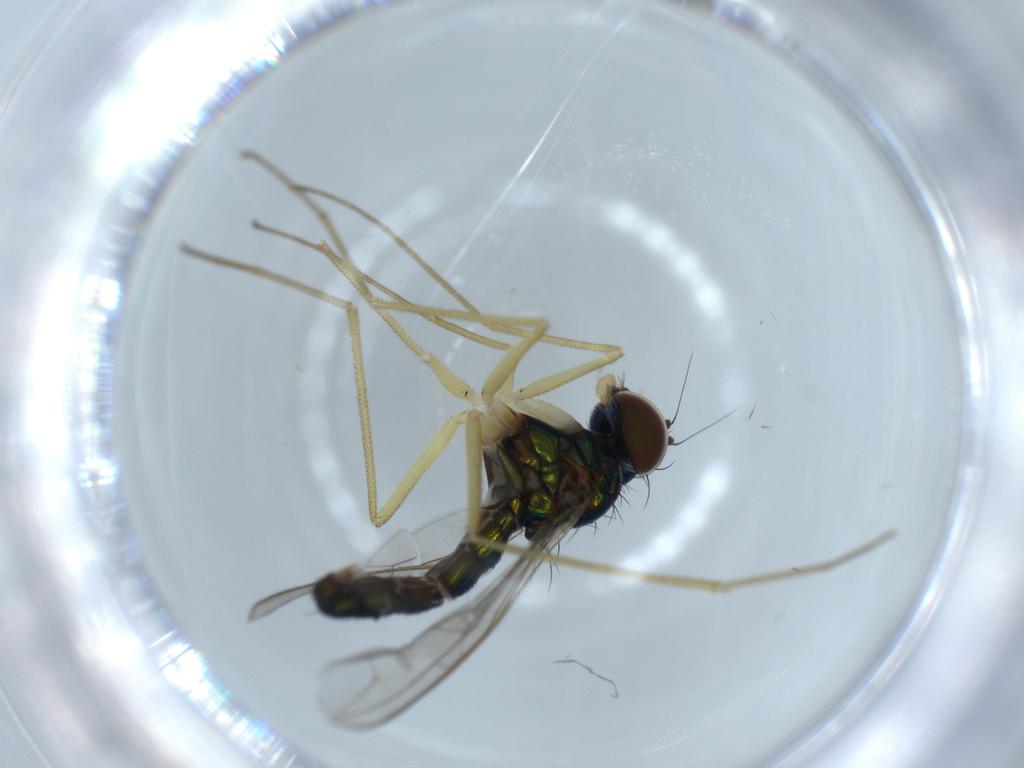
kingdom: Animalia
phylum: Arthropoda
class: Insecta
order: Diptera
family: Dolichopodidae
